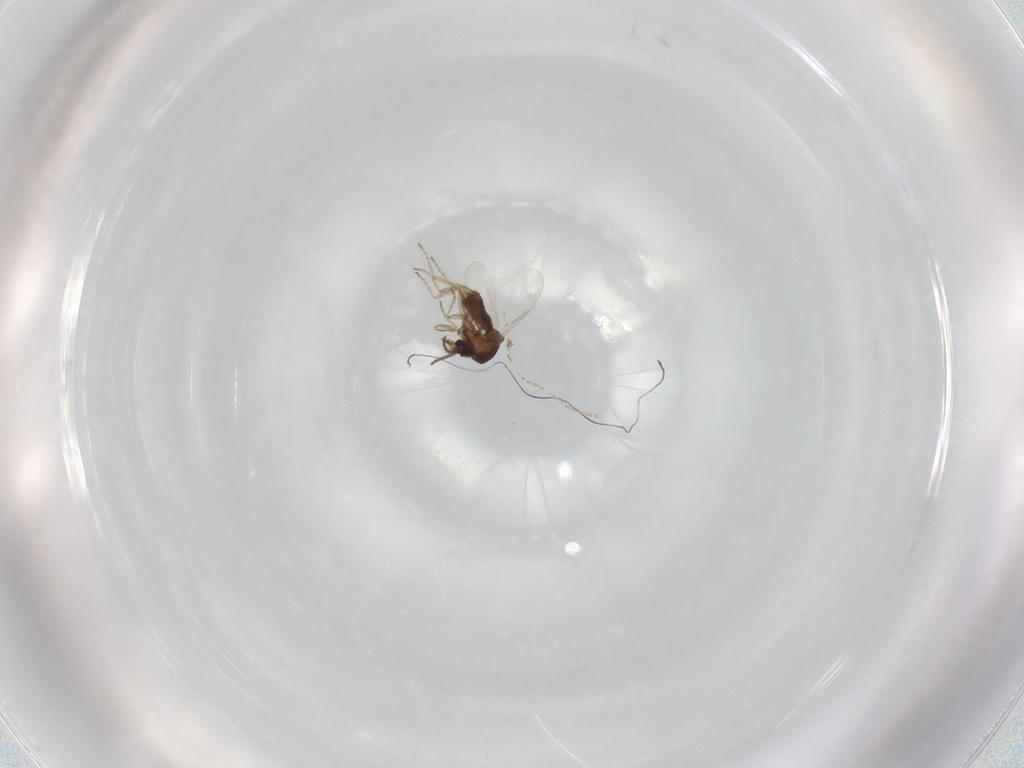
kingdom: Animalia
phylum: Arthropoda
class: Insecta
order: Diptera
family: Ceratopogonidae
